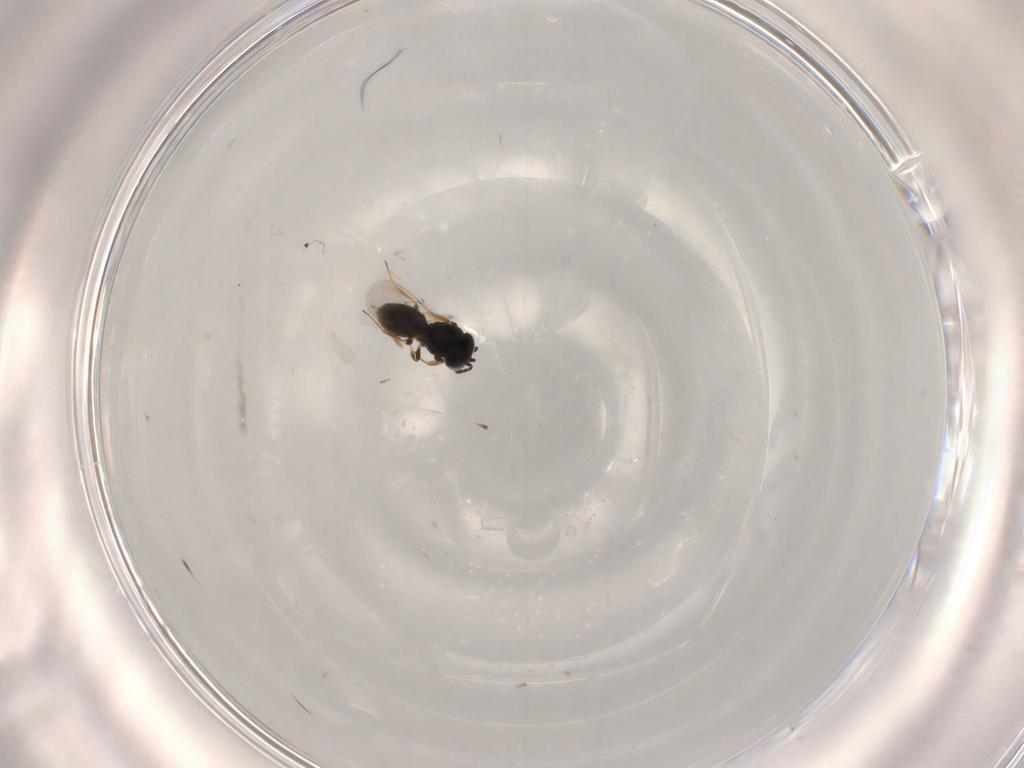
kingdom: Animalia
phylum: Arthropoda
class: Insecta
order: Hymenoptera
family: Scelionidae
